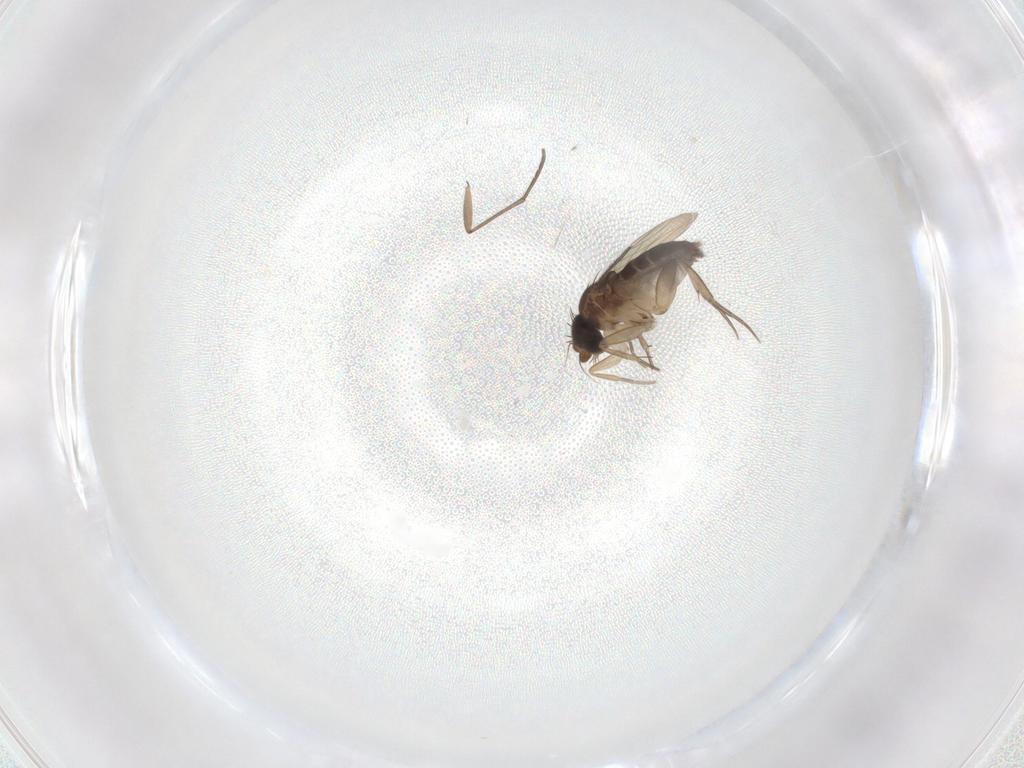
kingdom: Animalia
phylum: Arthropoda
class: Insecta
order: Diptera
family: Phoridae
